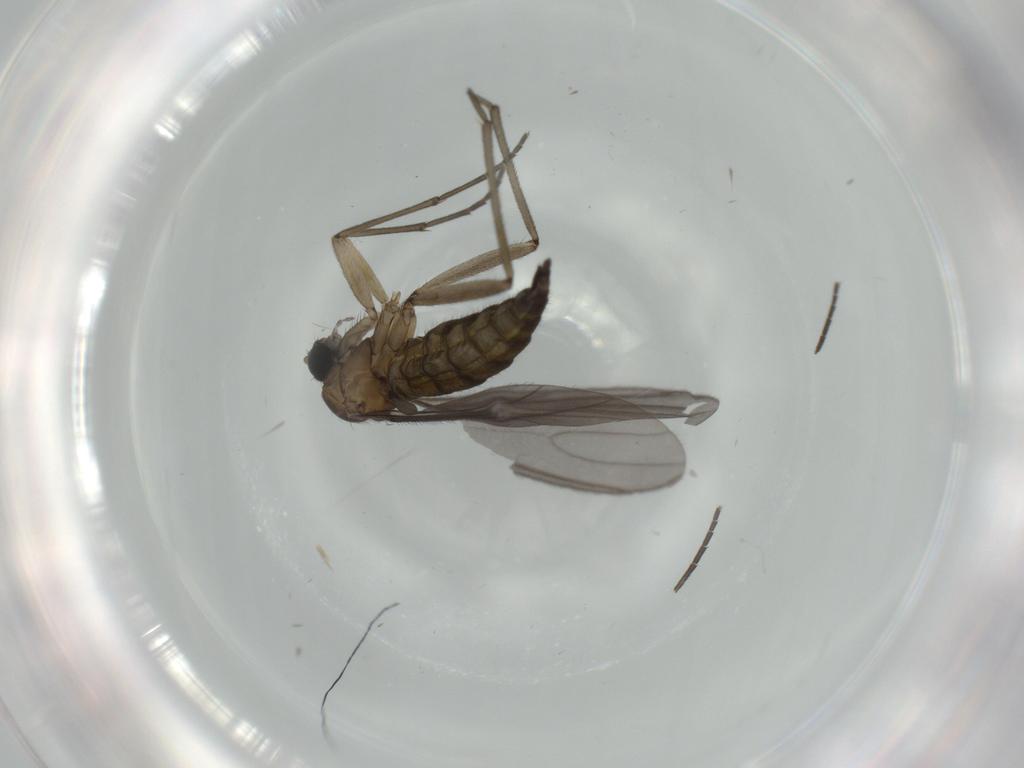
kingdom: Animalia
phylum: Arthropoda
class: Insecta
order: Diptera
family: Sciaridae
